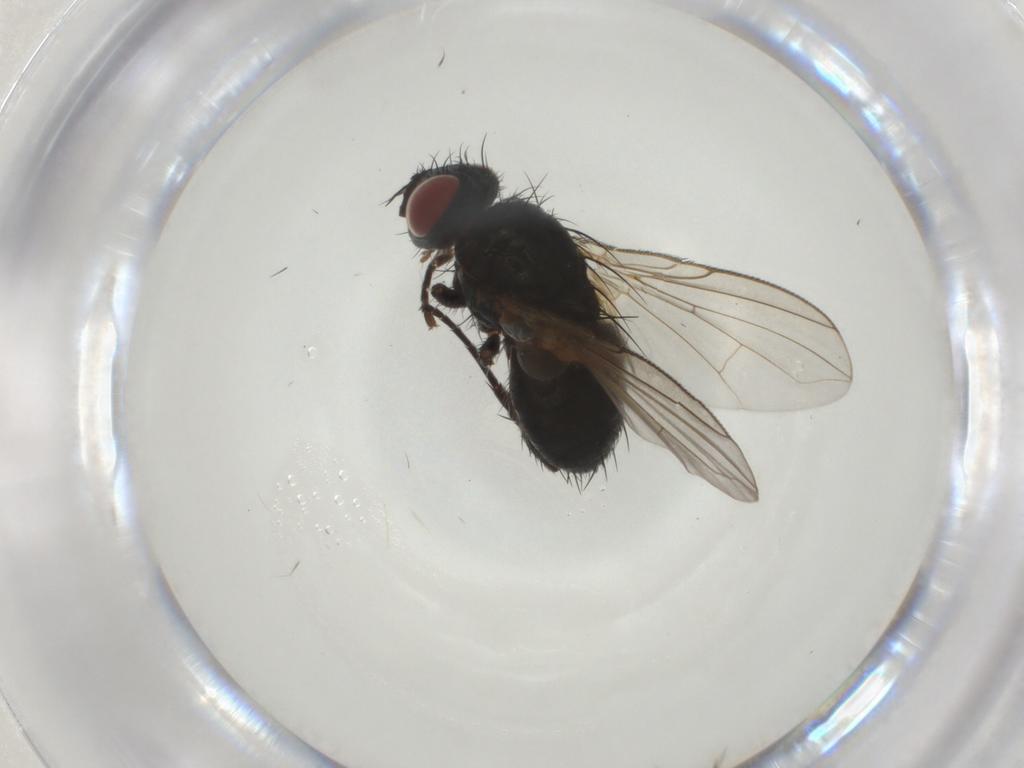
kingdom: Animalia
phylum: Arthropoda
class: Insecta
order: Diptera
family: Tachinidae
